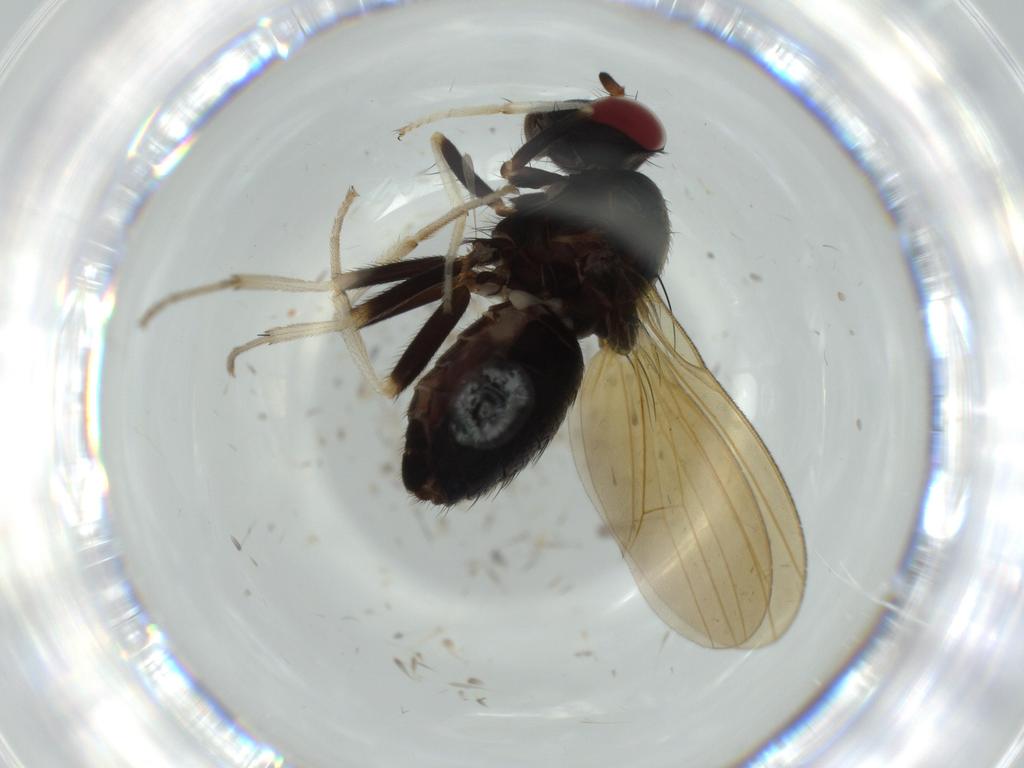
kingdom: Animalia
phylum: Arthropoda
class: Insecta
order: Diptera
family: Cecidomyiidae
